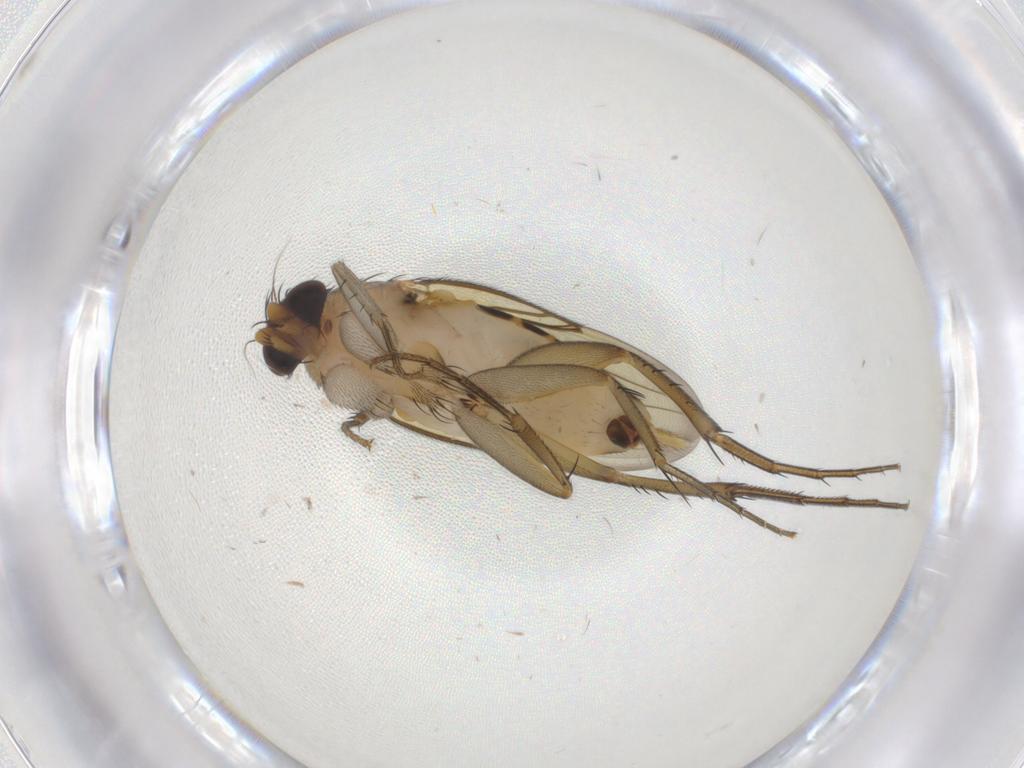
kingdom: Animalia
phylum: Arthropoda
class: Insecta
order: Diptera
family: Phoridae
